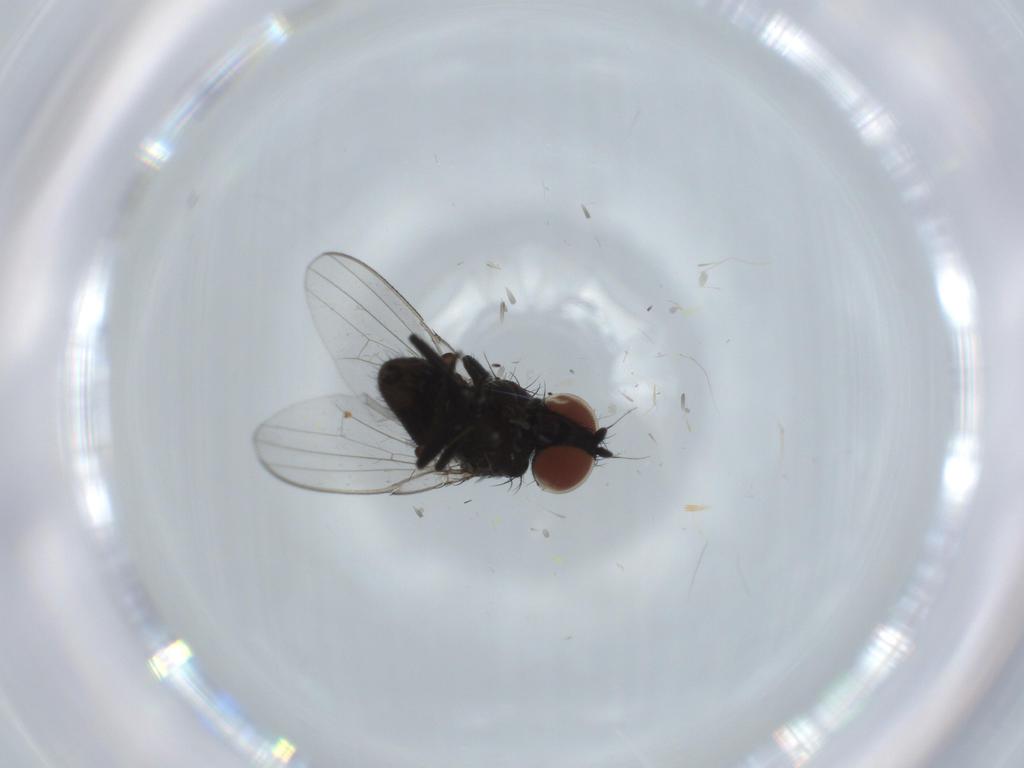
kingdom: Animalia
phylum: Arthropoda
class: Insecta
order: Diptera
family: Milichiidae
